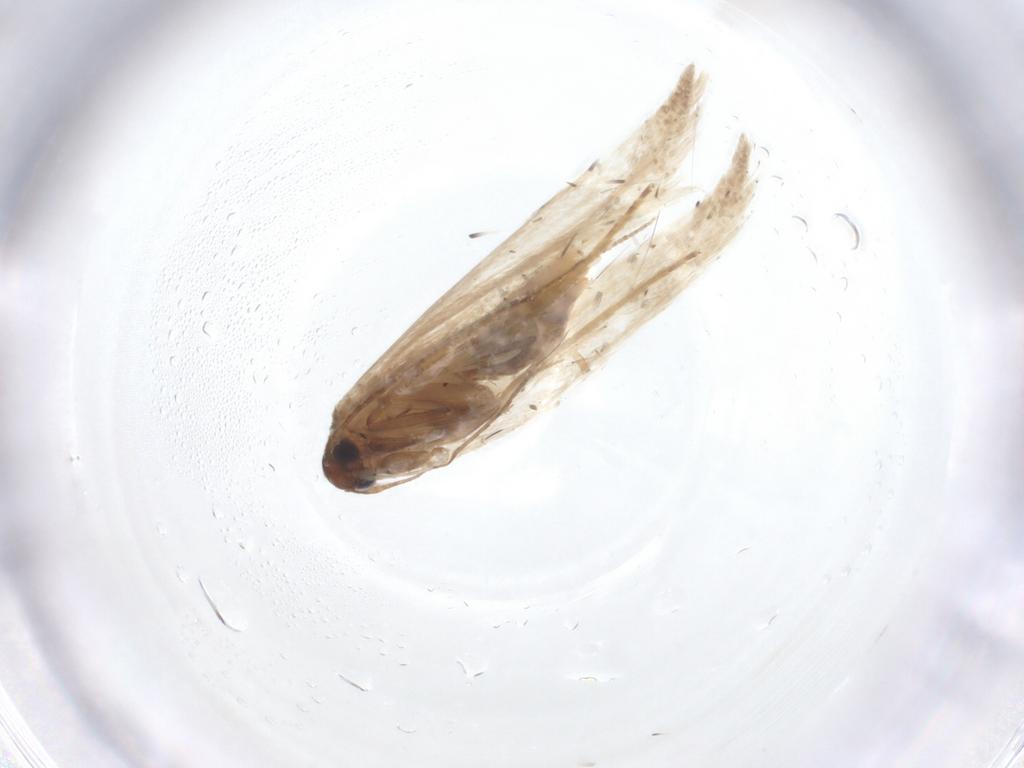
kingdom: Animalia
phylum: Arthropoda
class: Insecta
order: Lepidoptera
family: Gelechiidae
